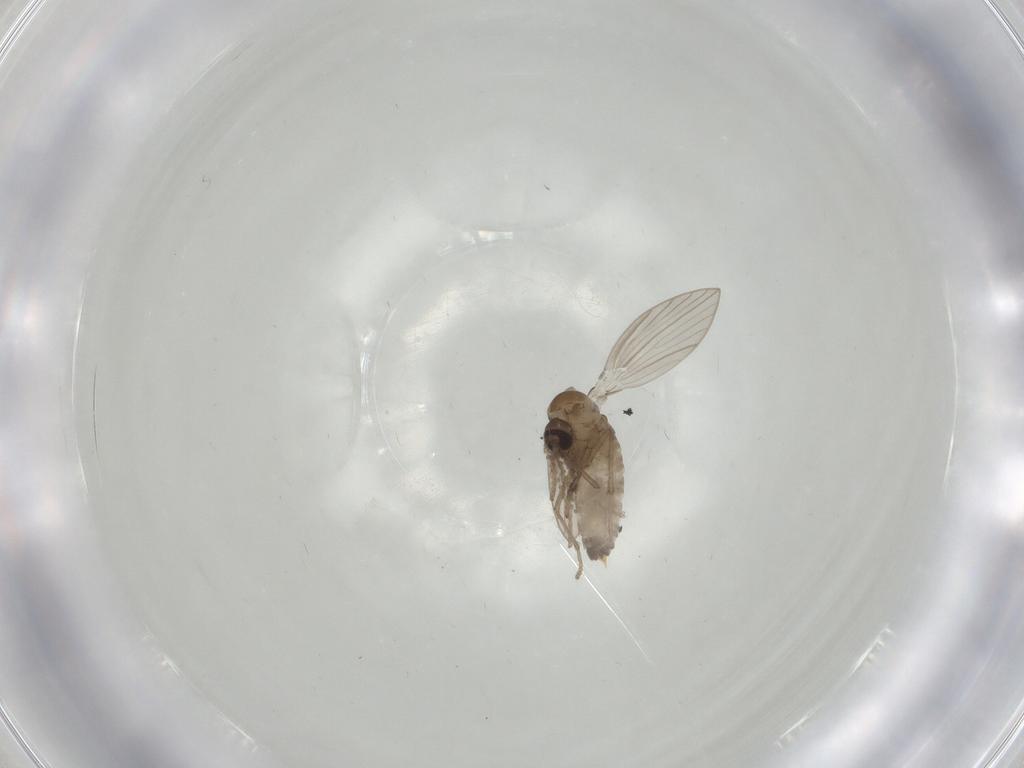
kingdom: Animalia
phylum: Arthropoda
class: Insecta
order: Diptera
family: Psychodidae
